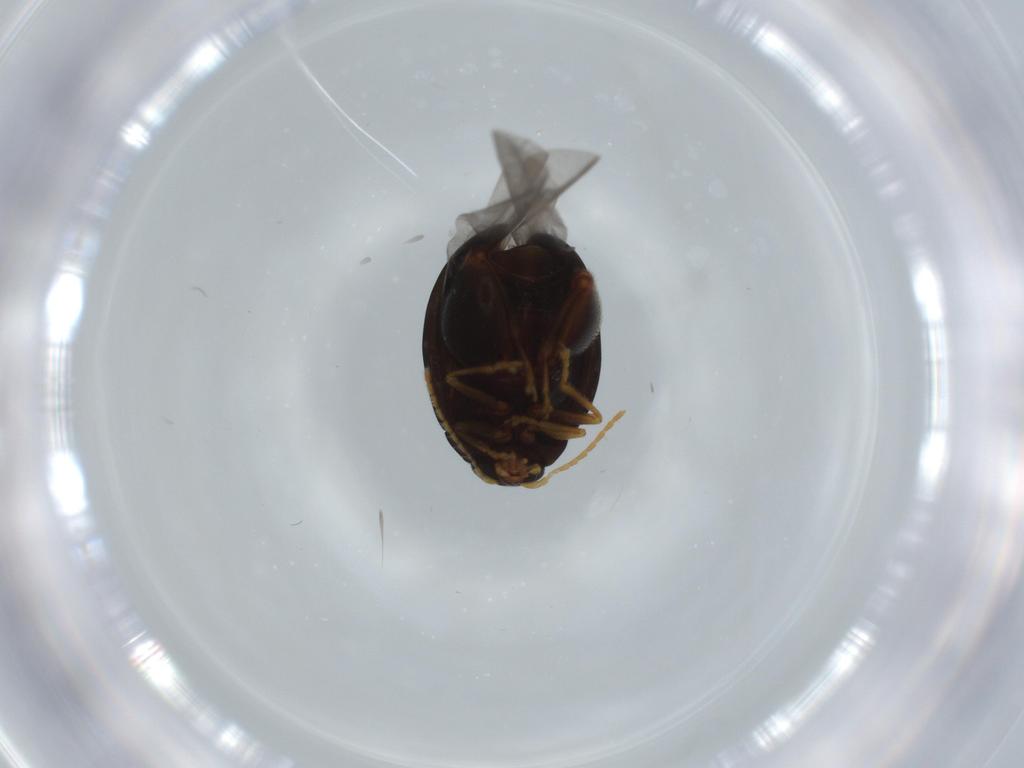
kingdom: Animalia
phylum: Arthropoda
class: Insecta
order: Coleoptera
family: Chrysomelidae
